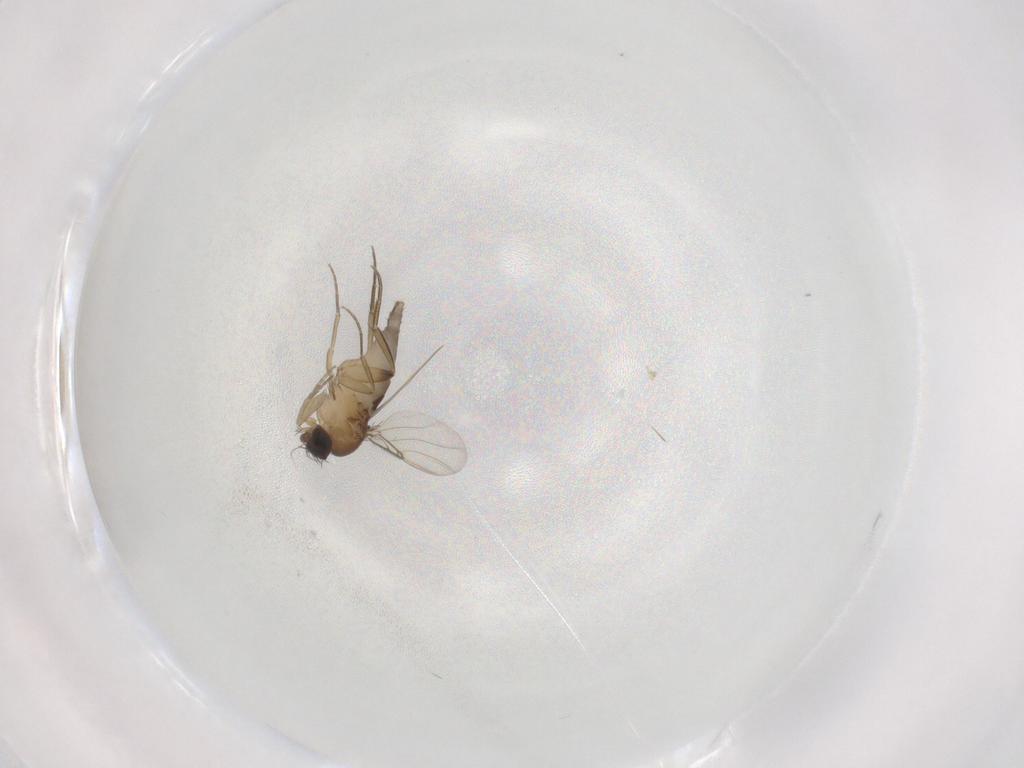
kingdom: Animalia
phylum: Arthropoda
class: Insecta
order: Diptera
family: Phoridae
